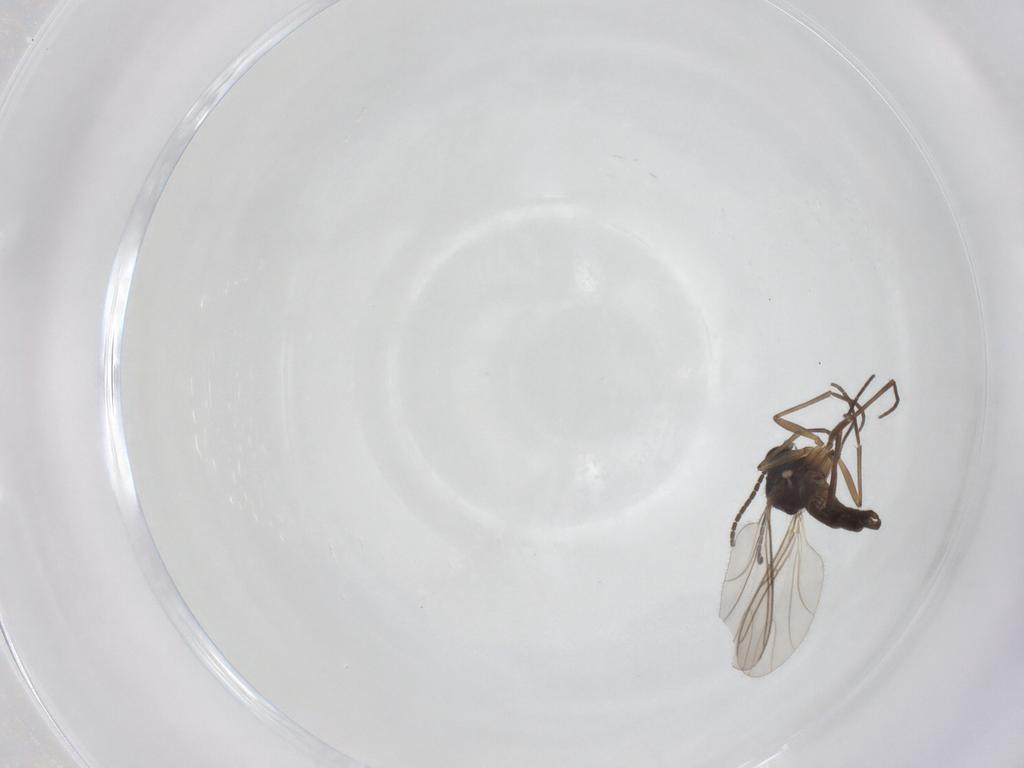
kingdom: Animalia
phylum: Arthropoda
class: Insecta
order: Diptera
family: Sciaridae
